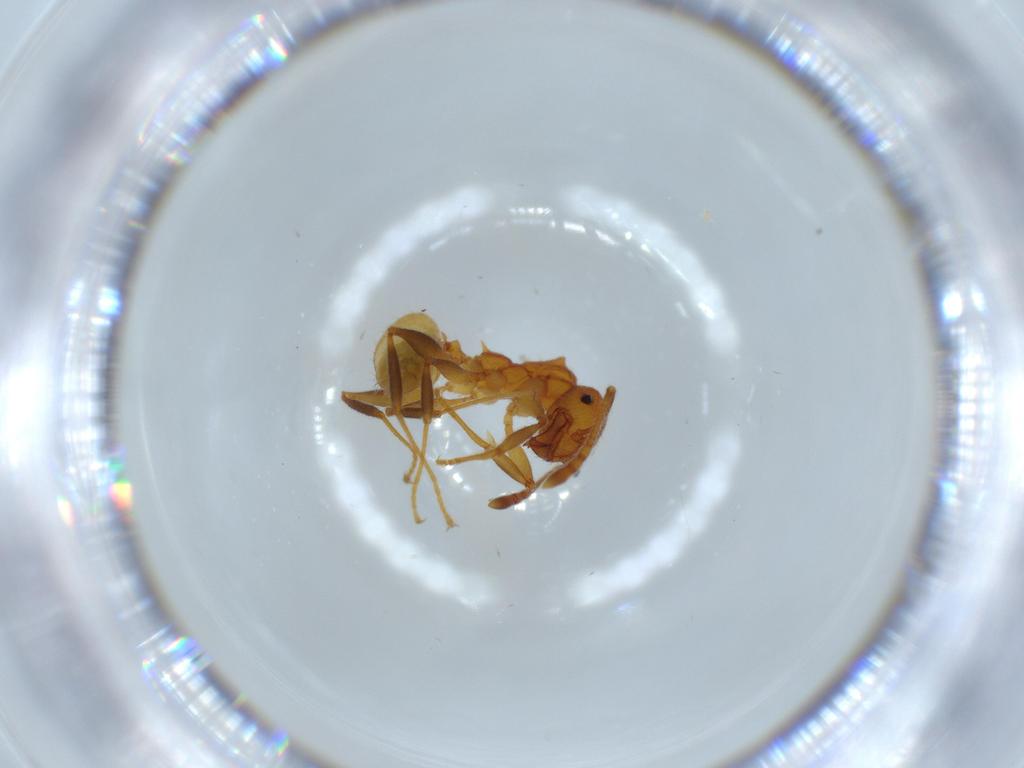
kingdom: Animalia
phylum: Arthropoda
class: Insecta
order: Hymenoptera
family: Formicidae
